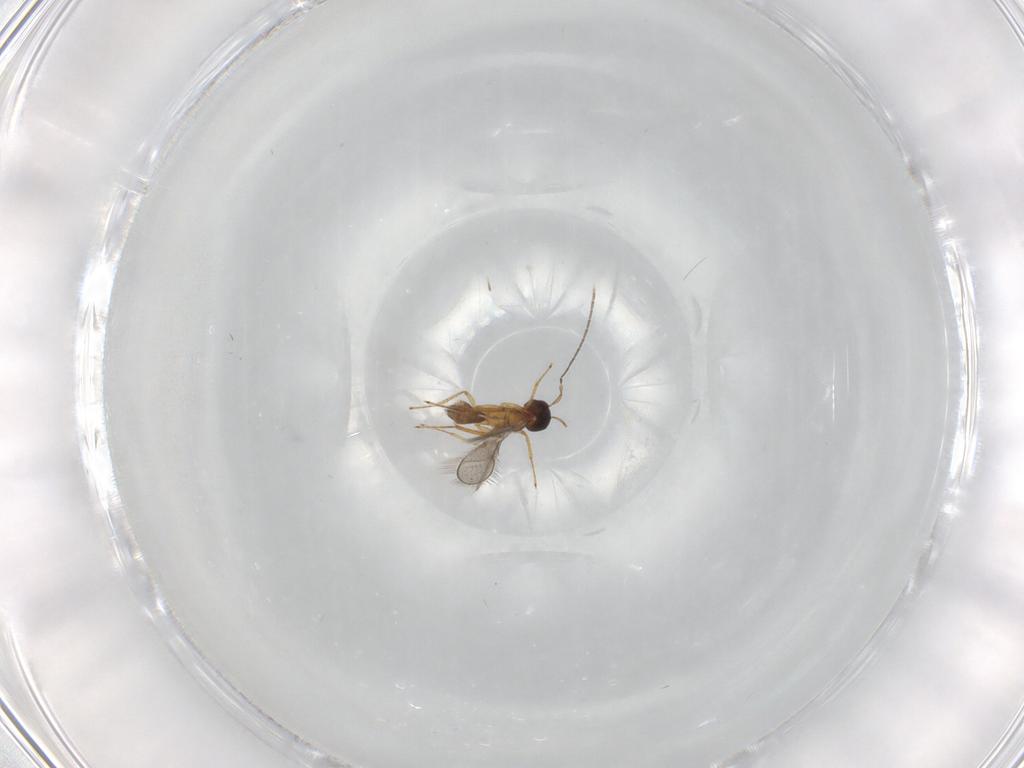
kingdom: Animalia
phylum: Arthropoda
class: Insecta
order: Hymenoptera
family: Mymaridae
